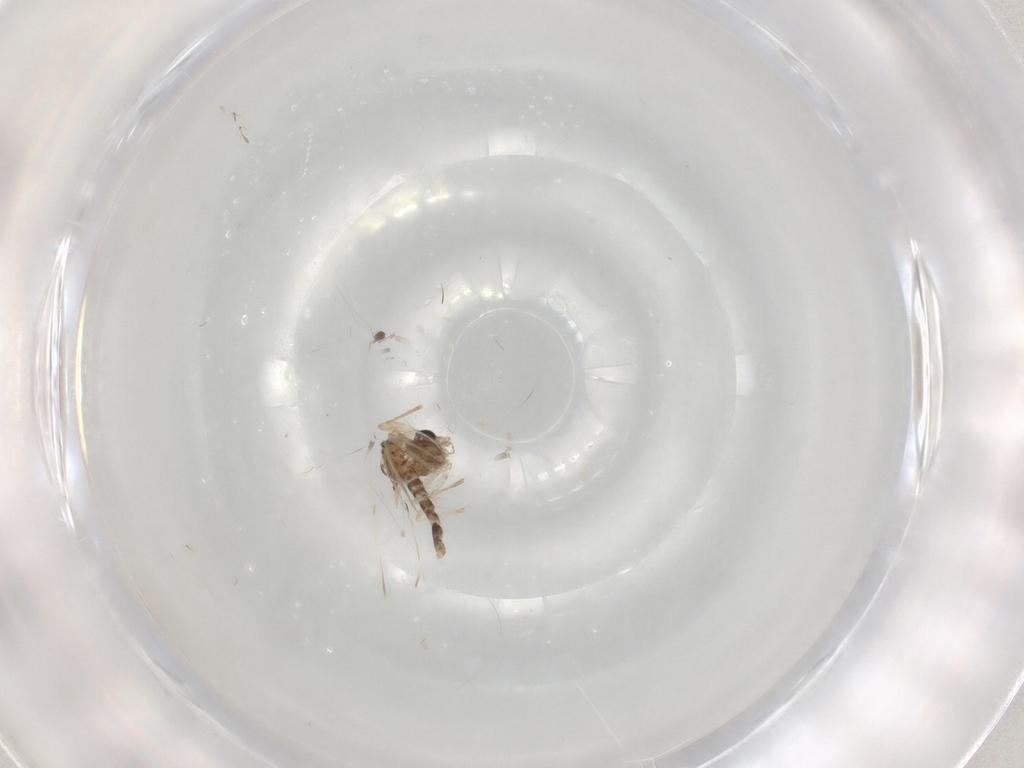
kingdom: Animalia
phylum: Arthropoda
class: Insecta
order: Diptera
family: Chironomidae
